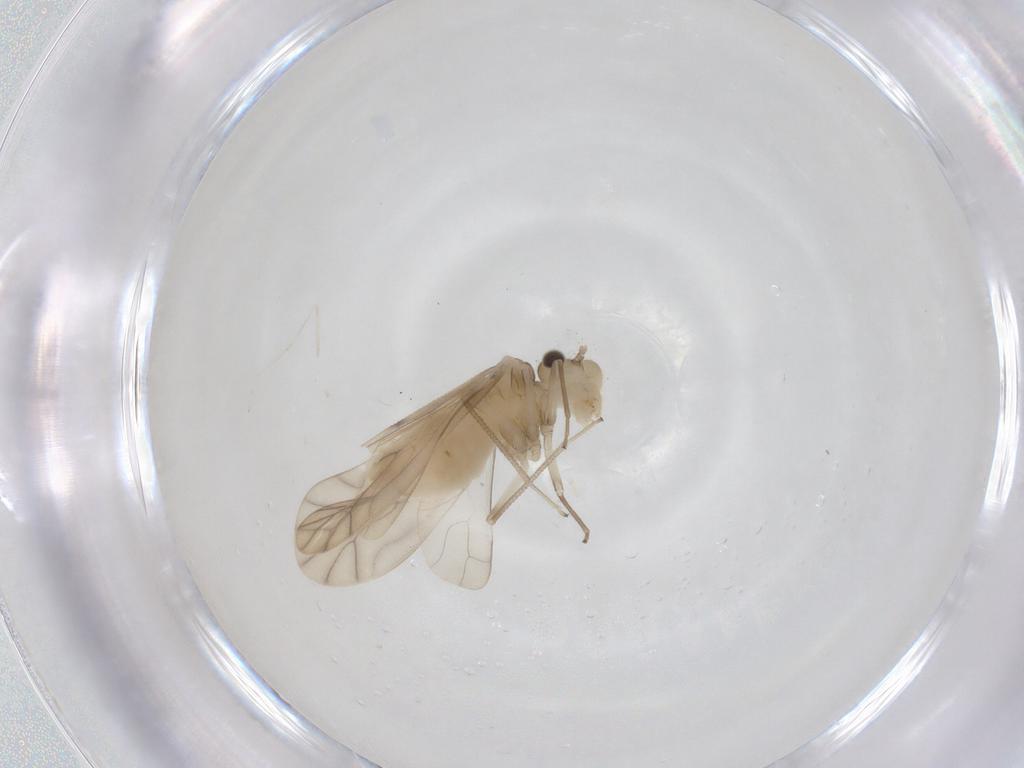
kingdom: Animalia
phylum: Arthropoda
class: Insecta
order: Psocodea
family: Caeciliusidae
